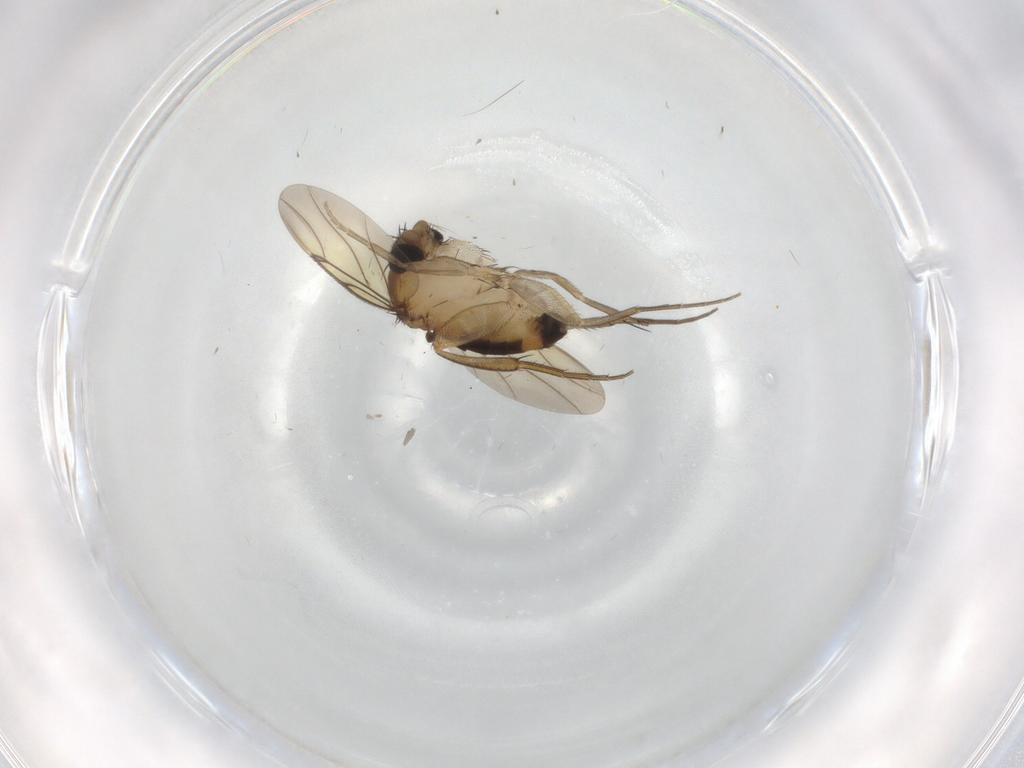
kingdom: Animalia
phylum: Arthropoda
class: Insecta
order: Diptera
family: Cecidomyiidae
